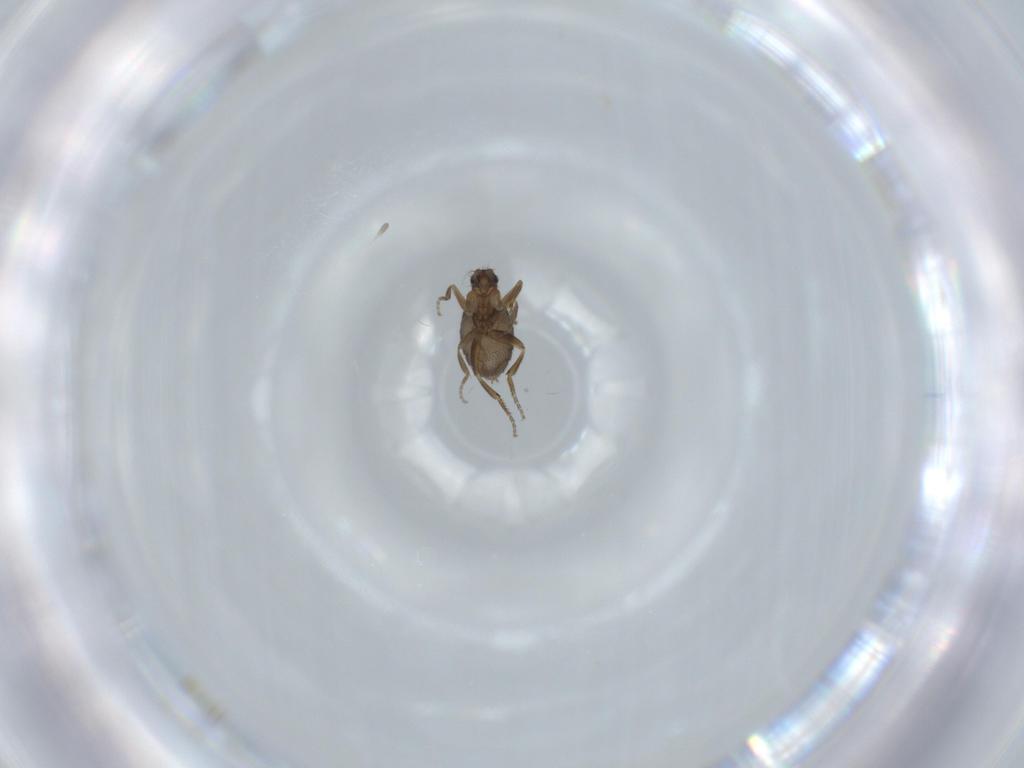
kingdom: Animalia
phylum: Arthropoda
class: Insecta
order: Diptera
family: Phoridae
